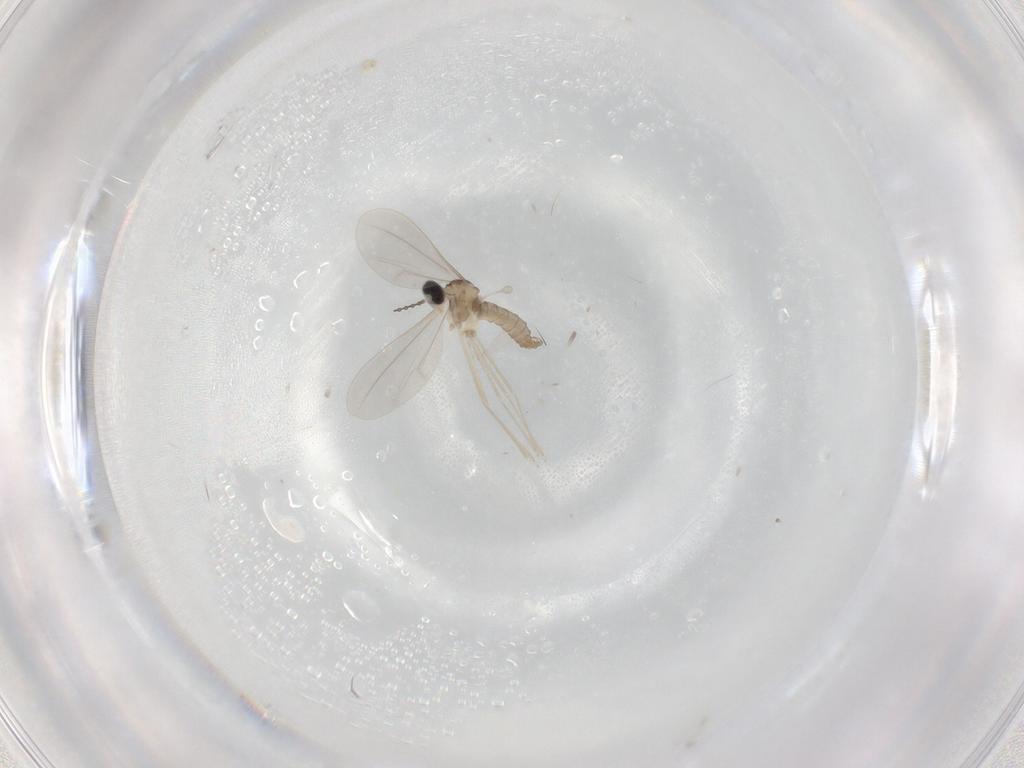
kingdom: Animalia
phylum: Arthropoda
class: Insecta
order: Diptera
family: Cecidomyiidae
